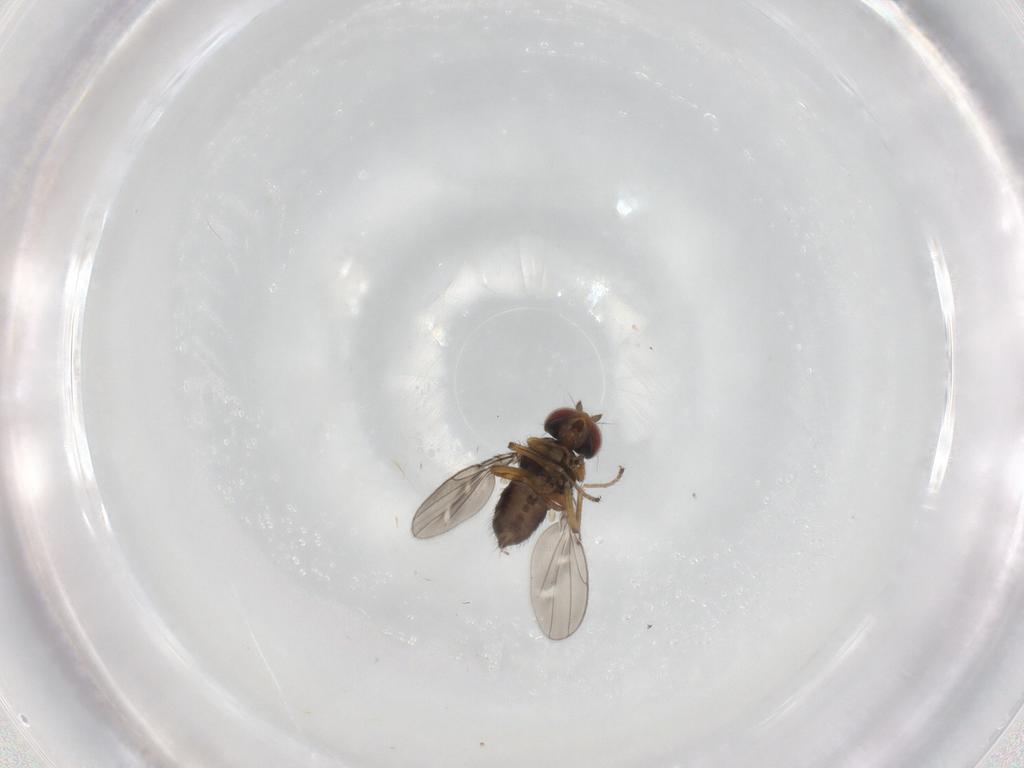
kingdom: Animalia
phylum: Arthropoda
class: Insecta
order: Diptera
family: Ephydridae
